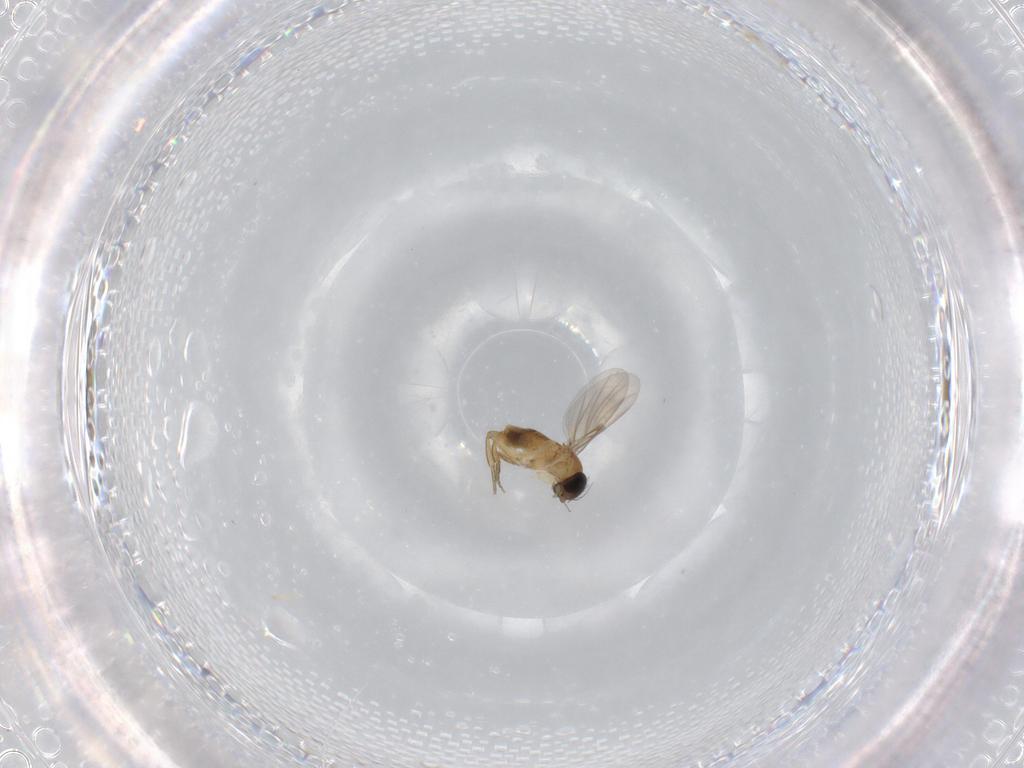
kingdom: Animalia
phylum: Arthropoda
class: Insecta
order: Diptera
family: Phoridae
